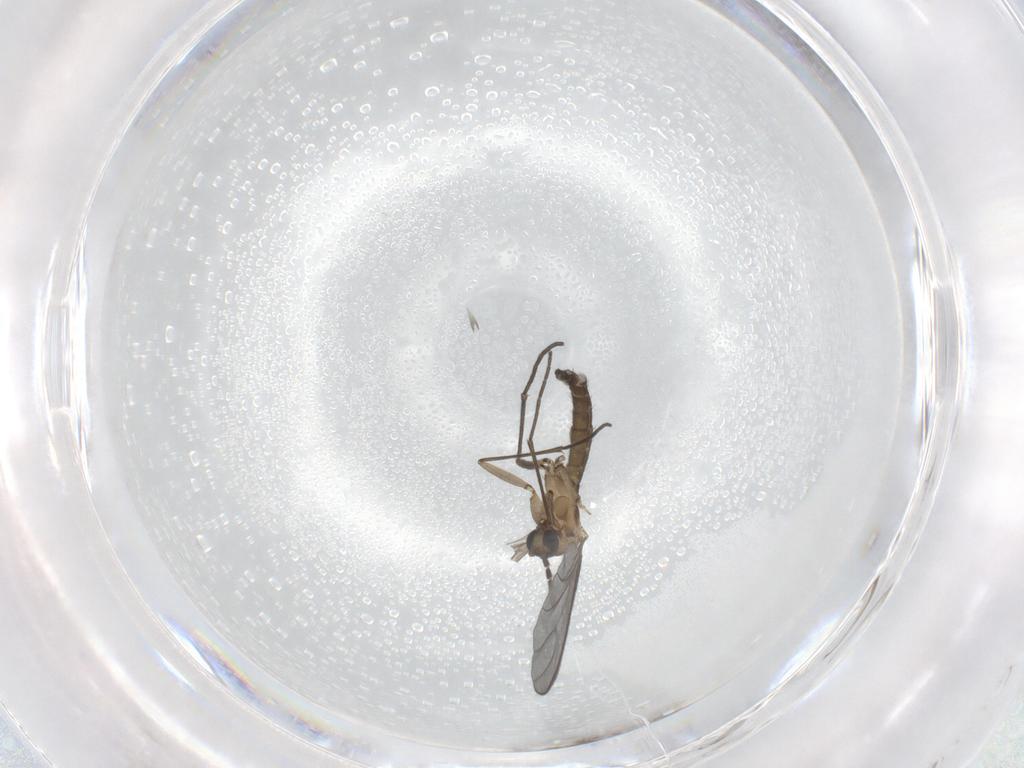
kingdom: Animalia
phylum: Arthropoda
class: Insecta
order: Diptera
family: Sciaridae
